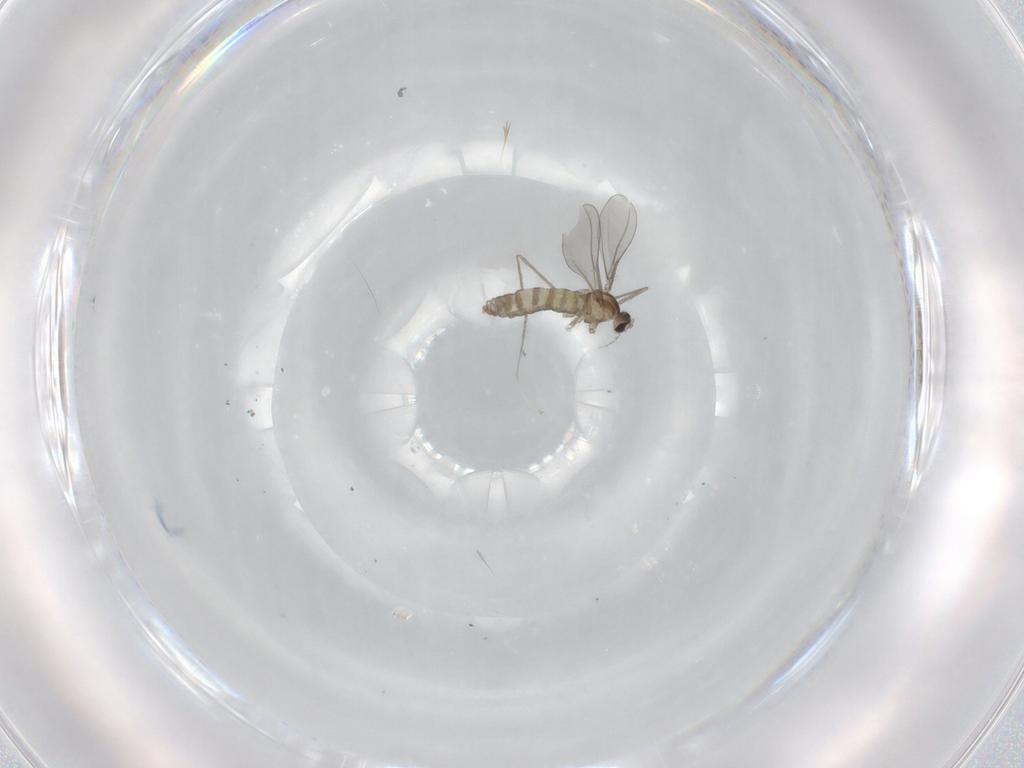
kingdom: Animalia
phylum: Arthropoda
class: Insecta
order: Diptera
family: Cecidomyiidae
